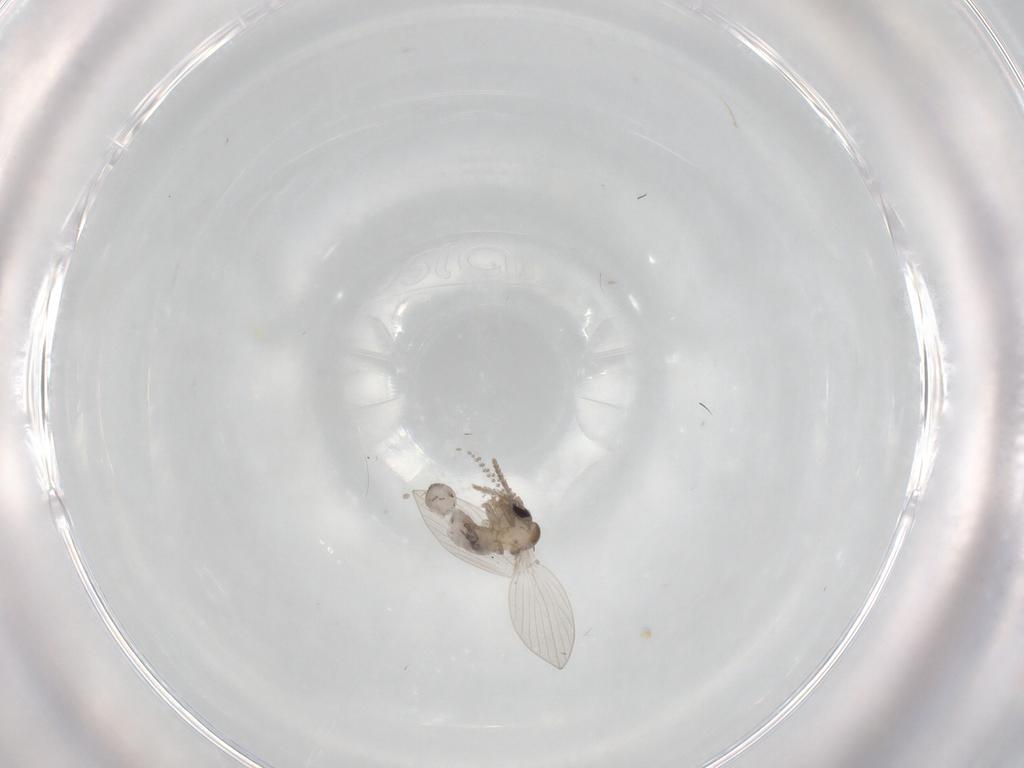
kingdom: Animalia
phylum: Arthropoda
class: Insecta
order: Diptera
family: Psychodidae
